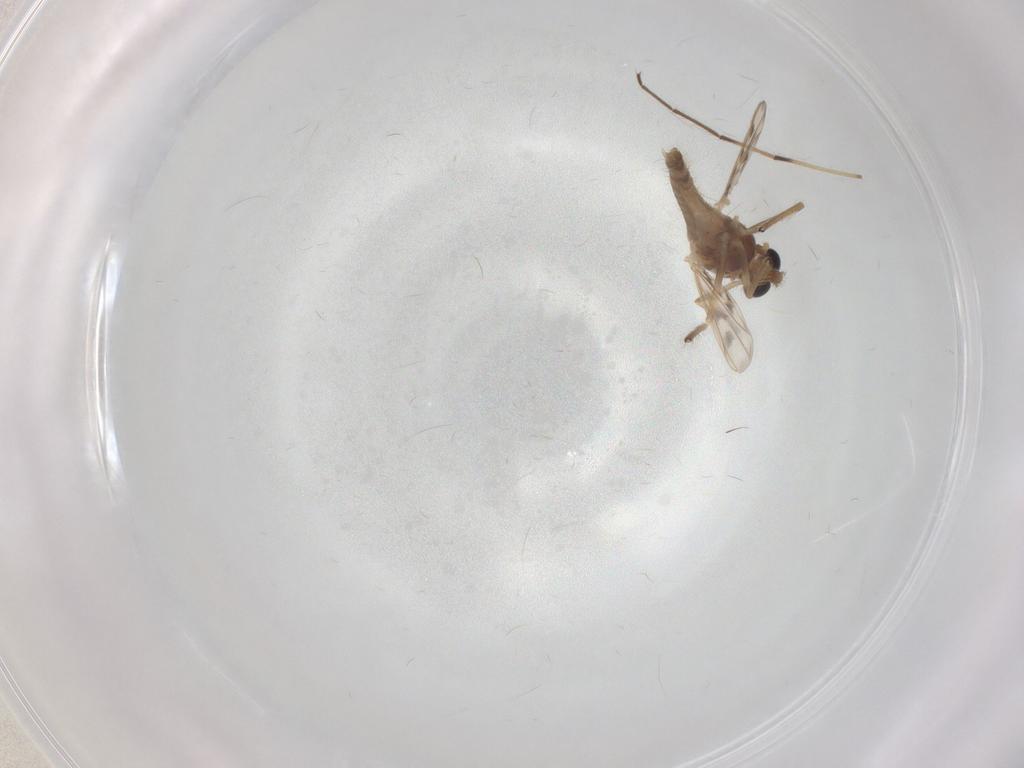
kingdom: Animalia
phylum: Arthropoda
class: Insecta
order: Diptera
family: Chironomidae
